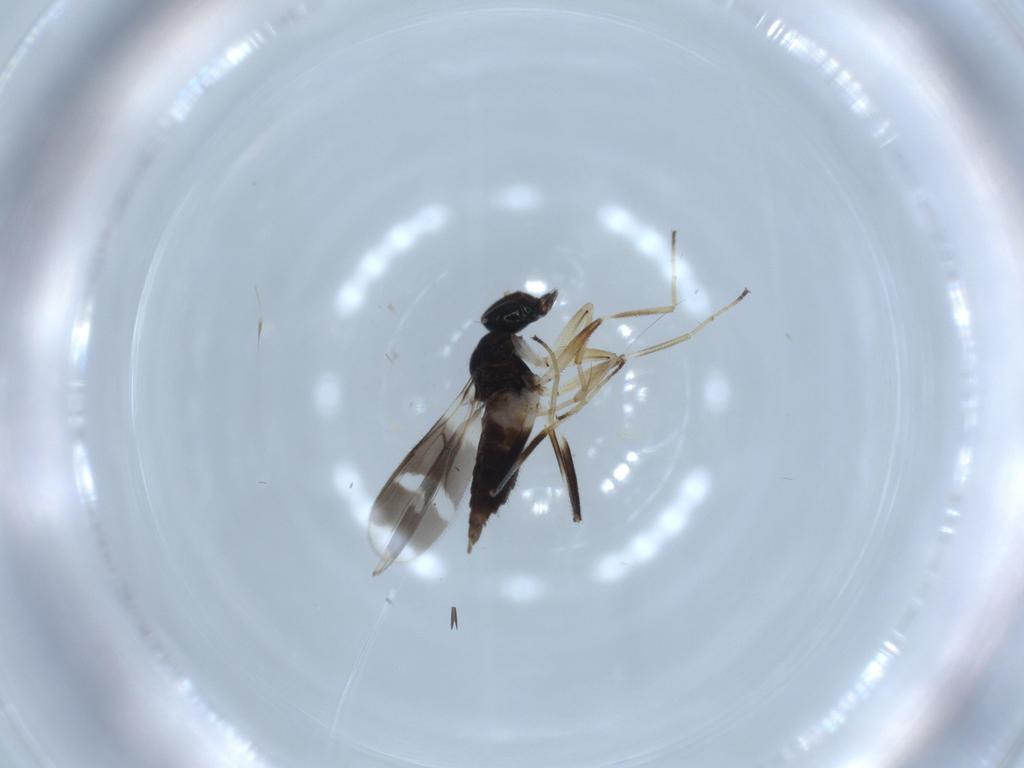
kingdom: Animalia
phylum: Arthropoda
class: Insecta
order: Diptera
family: Hybotidae
